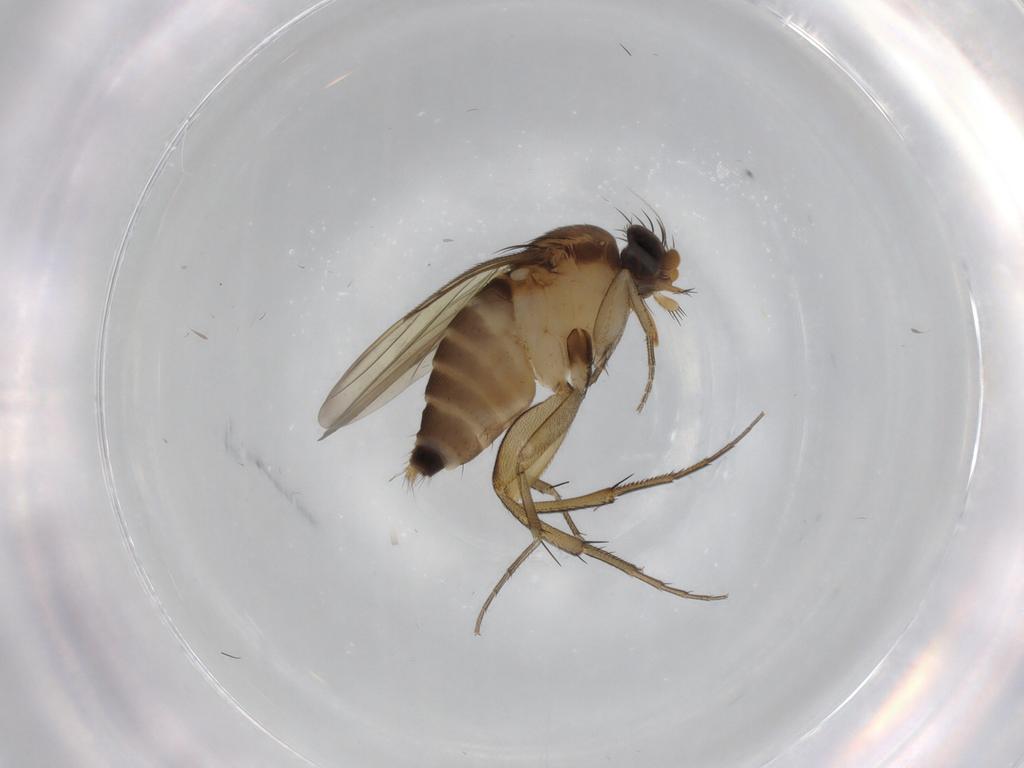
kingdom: Animalia
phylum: Arthropoda
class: Insecta
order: Diptera
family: Phoridae
